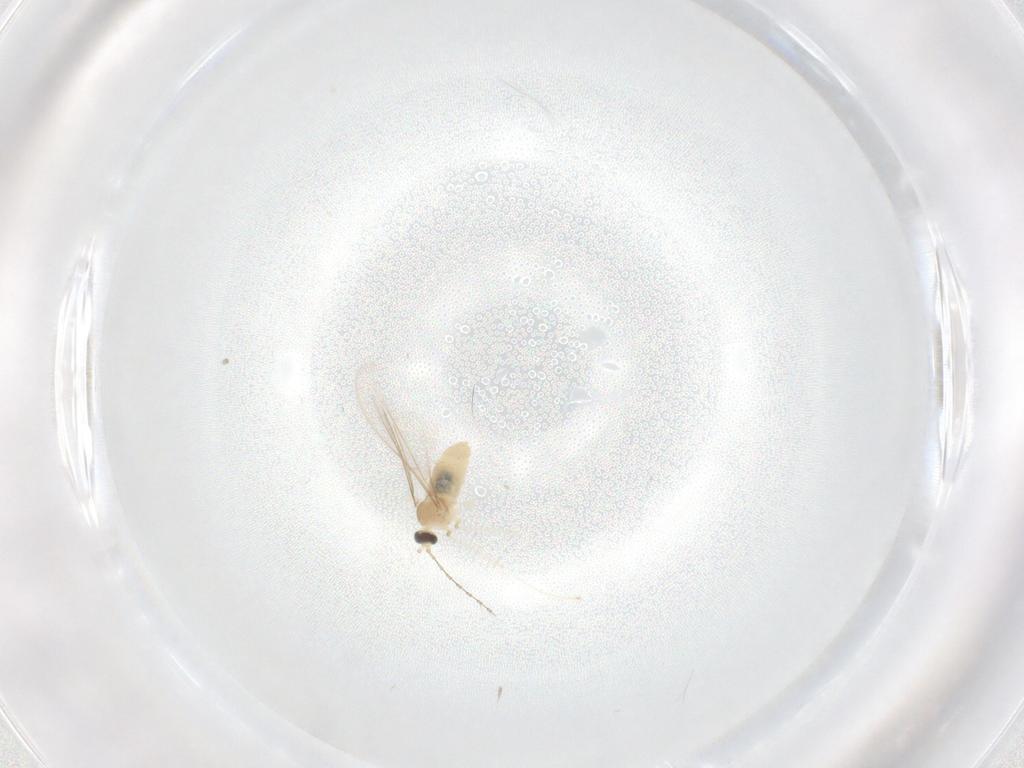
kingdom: Animalia
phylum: Arthropoda
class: Insecta
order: Diptera
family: Cecidomyiidae
